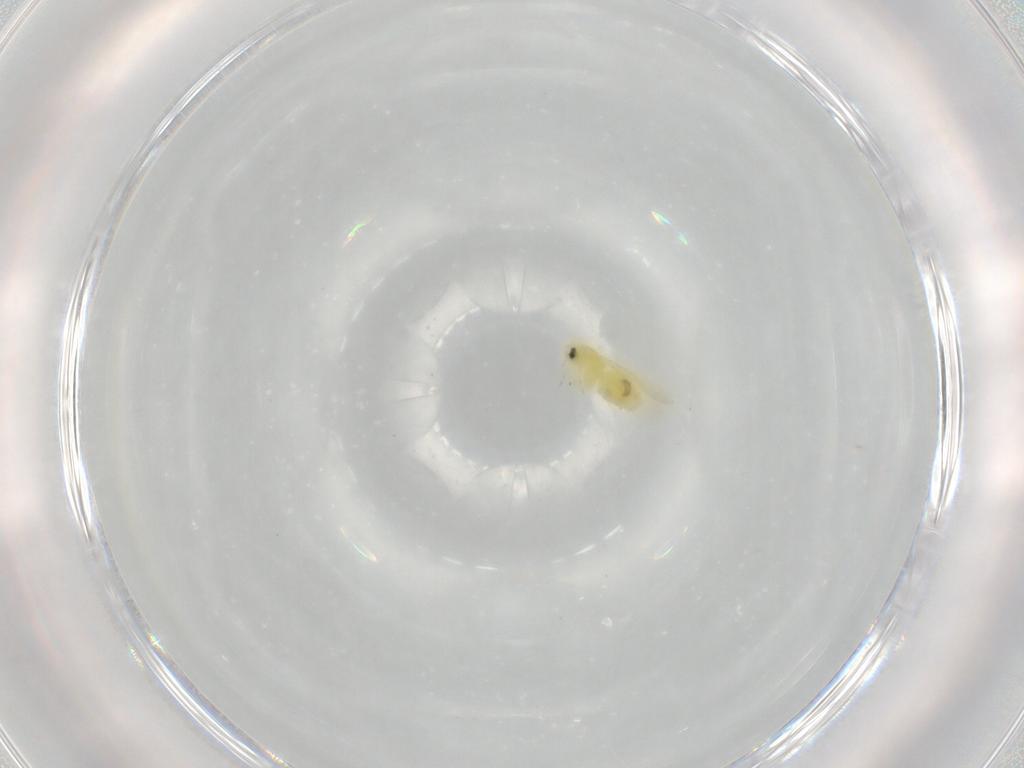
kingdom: Animalia
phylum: Arthropoda
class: Insecta
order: Hemiptera
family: Aleyrodidae
